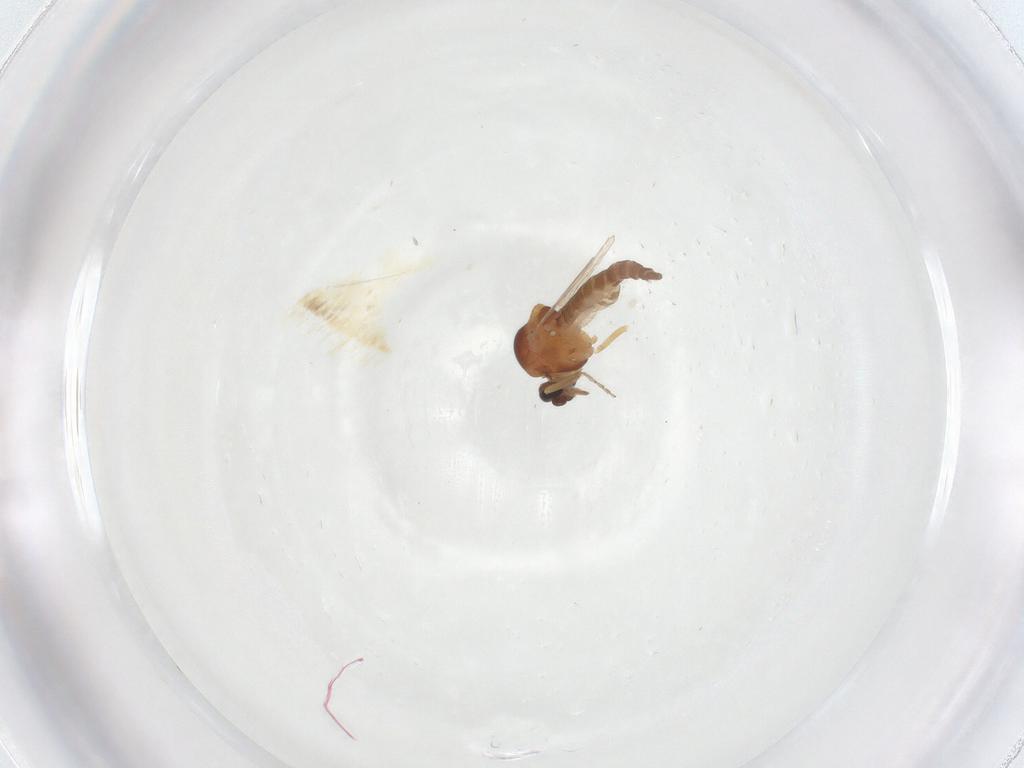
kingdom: Animalia
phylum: Arthropoda
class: Insecta
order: Diptera
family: Ceratopogonidae
